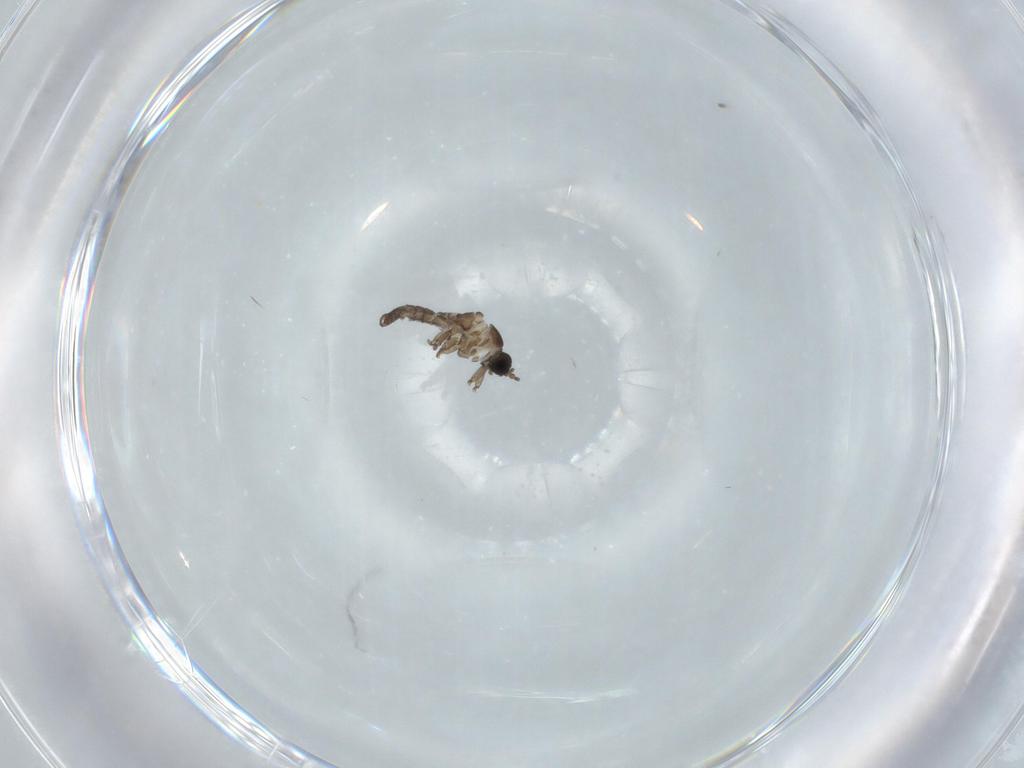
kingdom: Animalia
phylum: Arthropoda
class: Insecta
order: Diptera
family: Sciaridae
